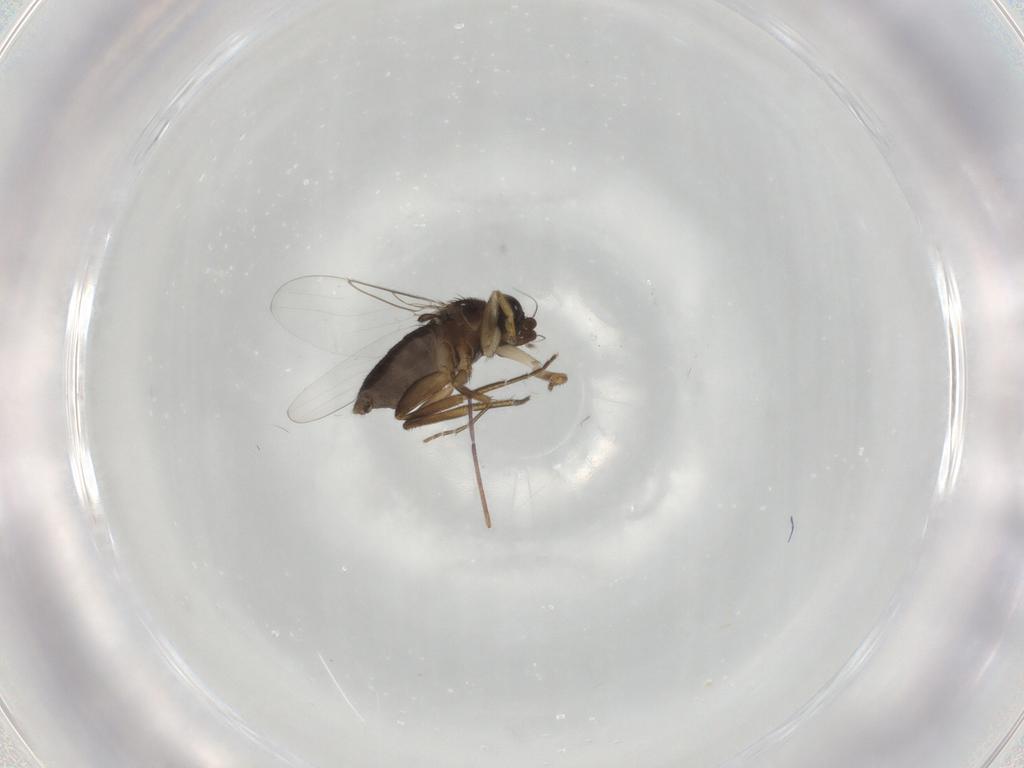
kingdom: Animalia
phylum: Arthropoda
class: Insecta
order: Diptera
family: Phoridae
